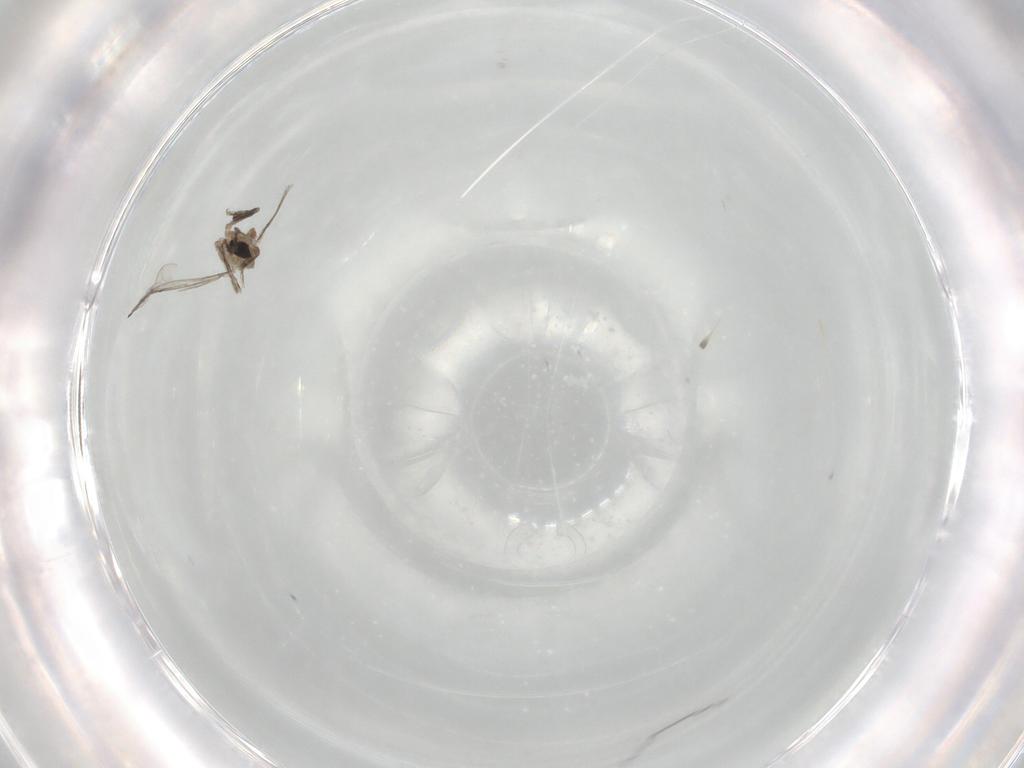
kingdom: Animalia
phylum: Arthropoda
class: Insecta
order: Diptera
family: Cecidomyiidae
